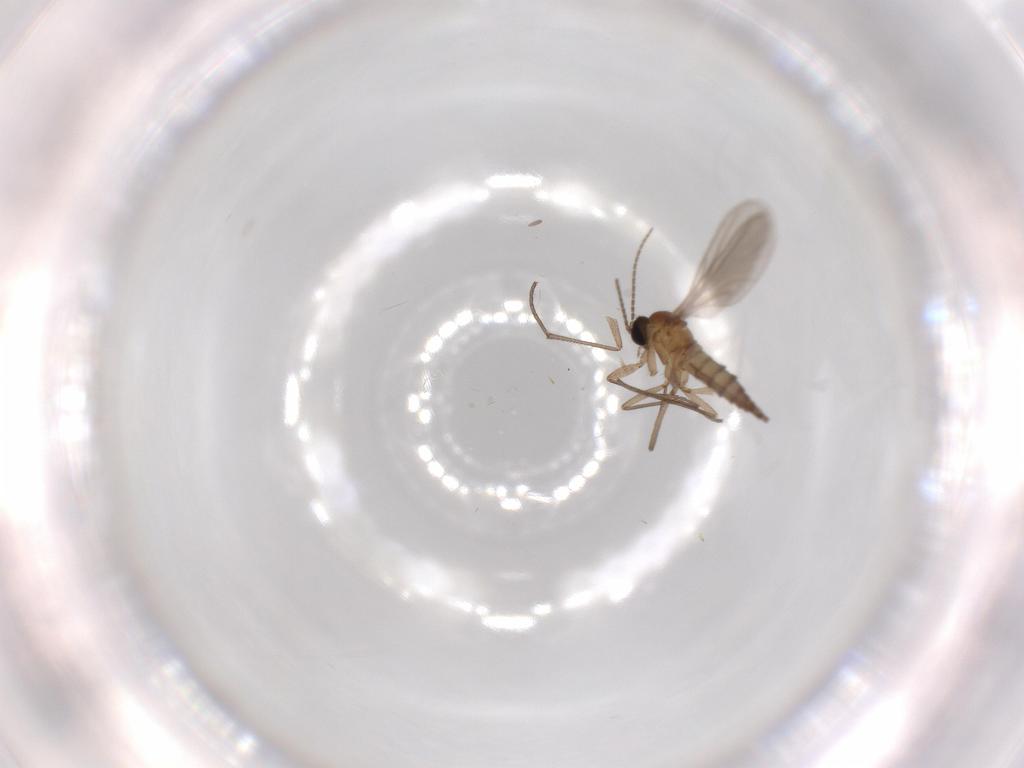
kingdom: Animalia
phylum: Arthropoda
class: Insecta
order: Diptera
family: Sciaridae
